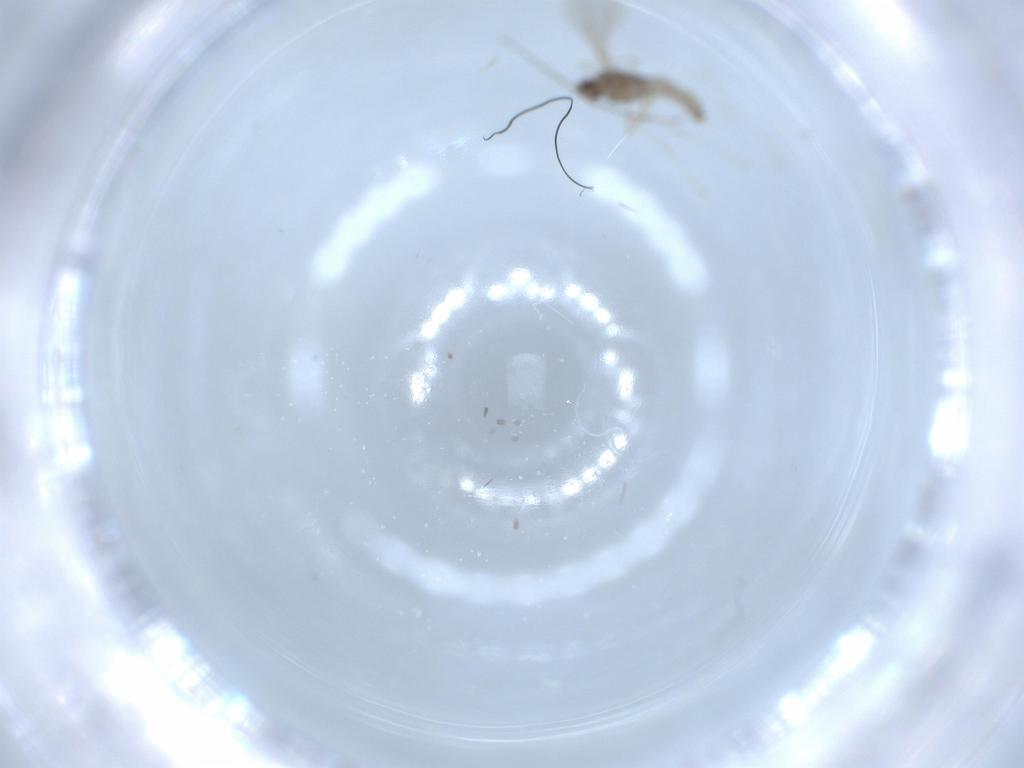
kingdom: Animalia
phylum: Arthropoda
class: Insecta
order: Diptera
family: Cecidomyiidae
